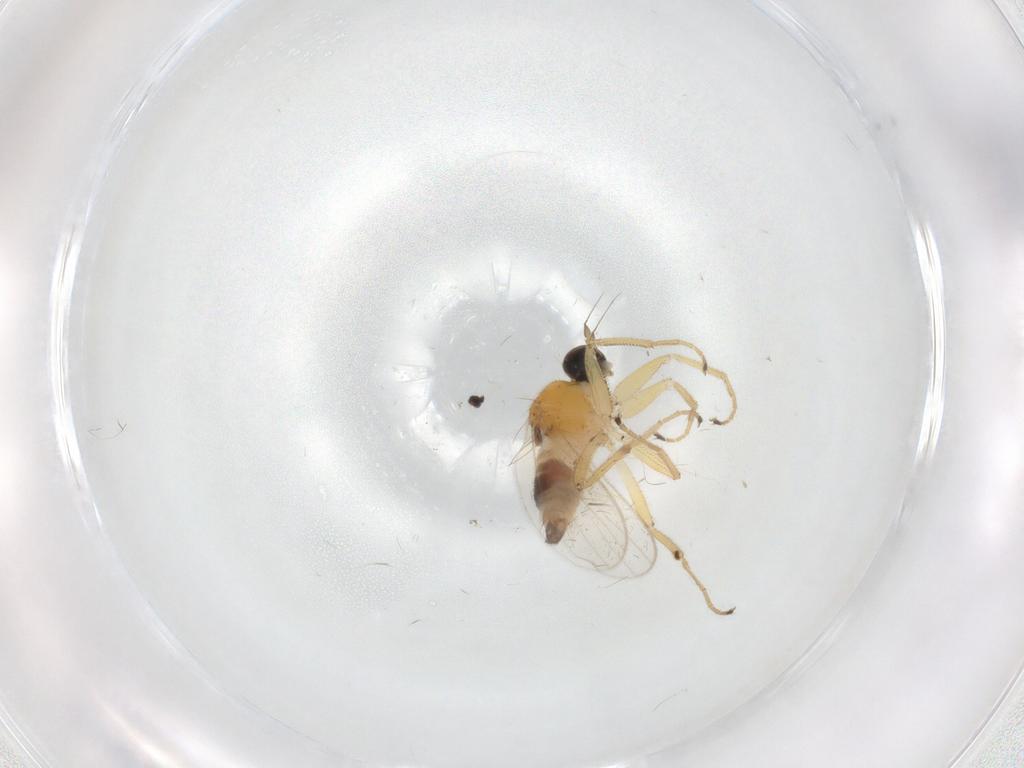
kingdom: Animalia
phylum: Arthropoda
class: Insecta
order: Diptera
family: Hybotidae
